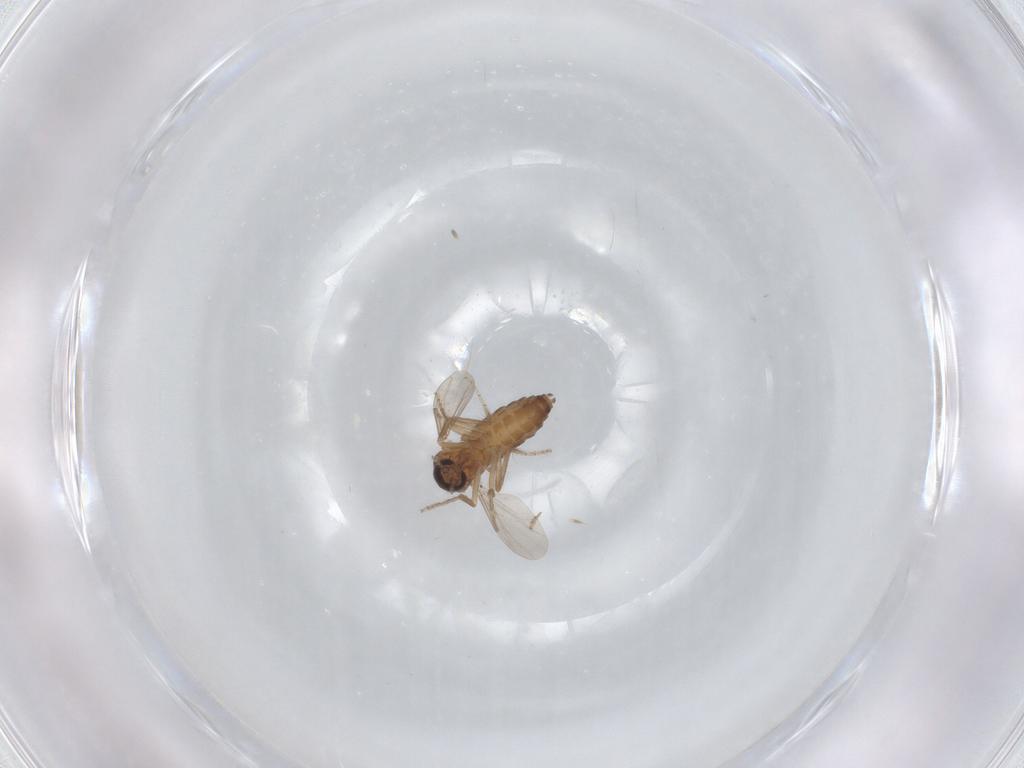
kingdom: Animalia
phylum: Arthropoda
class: Insecta
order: Diptera
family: Ceratopogonidae
